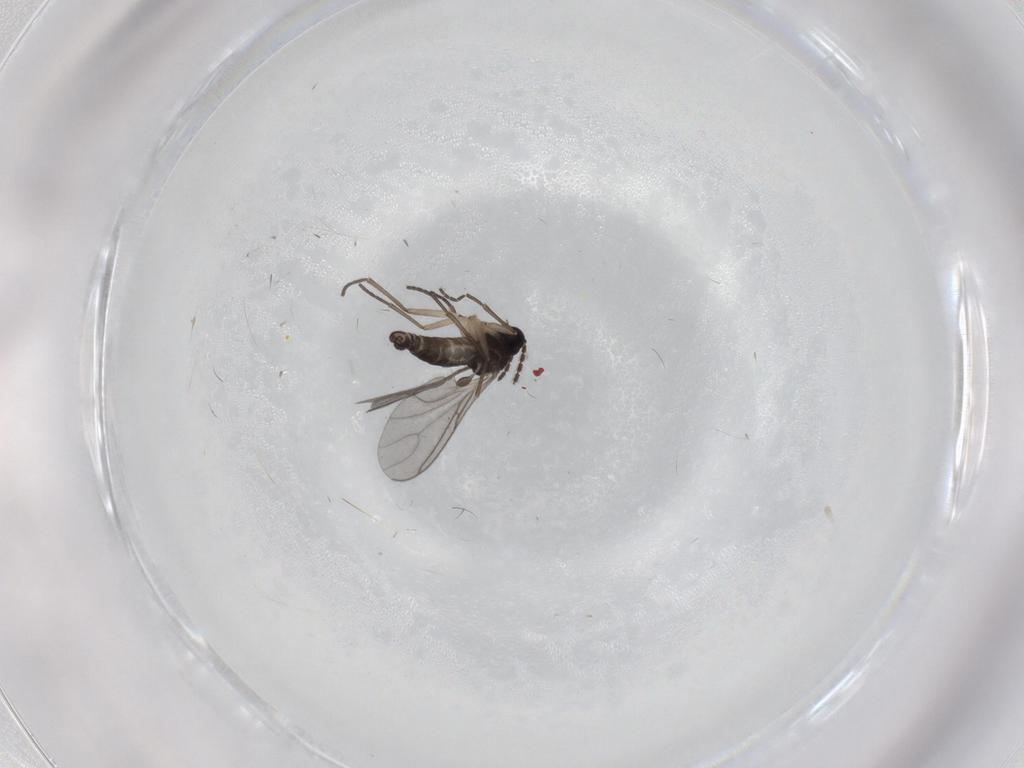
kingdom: Animalia
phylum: Arthropoda
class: Insecta
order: Diptera
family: Sciaridae
